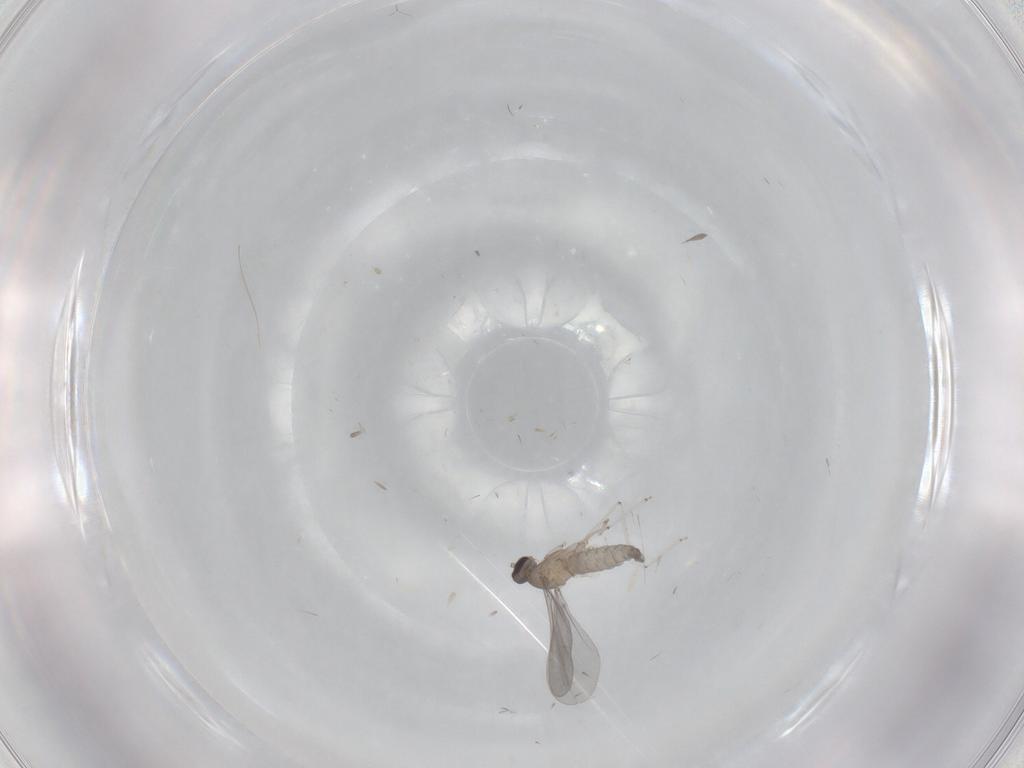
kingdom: Animalia
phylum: Arthropoda
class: Insecta
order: Diptera
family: Cecidomyiidae
